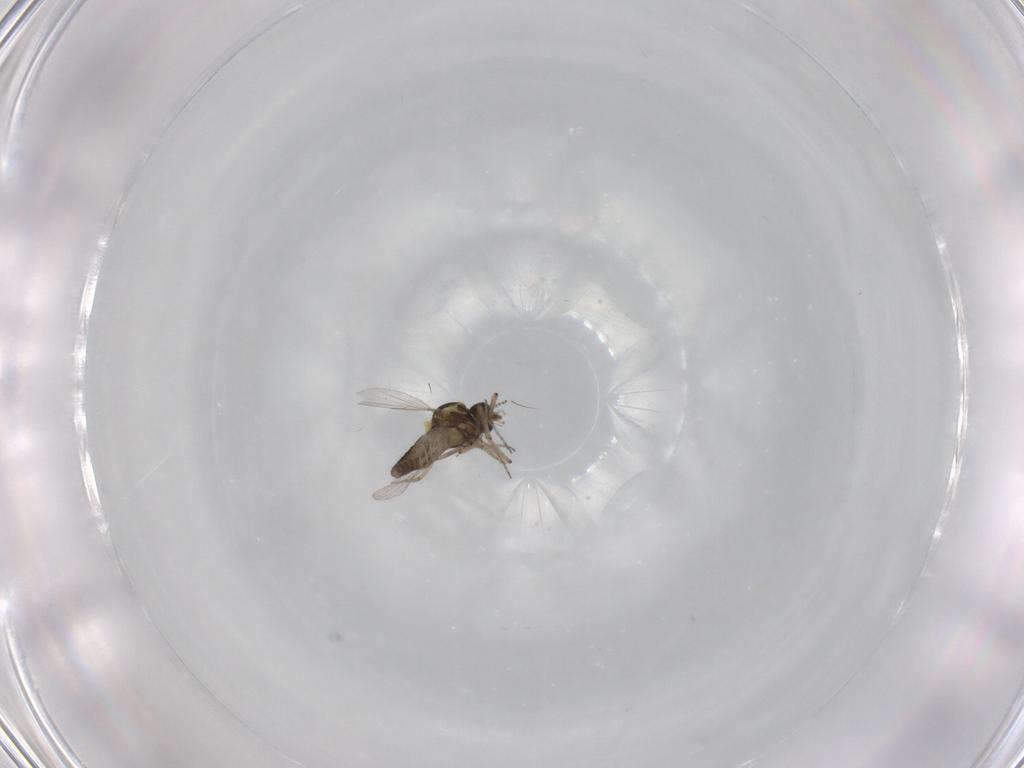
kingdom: Animalia
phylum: Arthropoda
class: Insecta
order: Diptera
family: Ceratopogonidae
